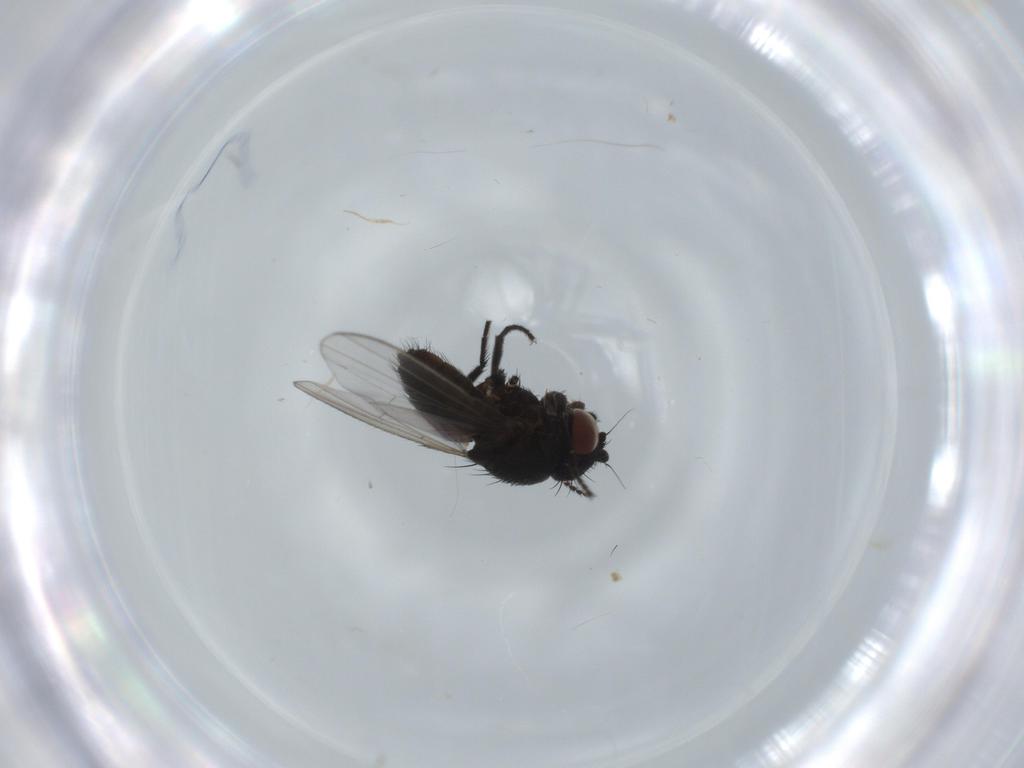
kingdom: Animalia
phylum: Arthropoda
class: Insecta
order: Diptera
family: Milichiidae
